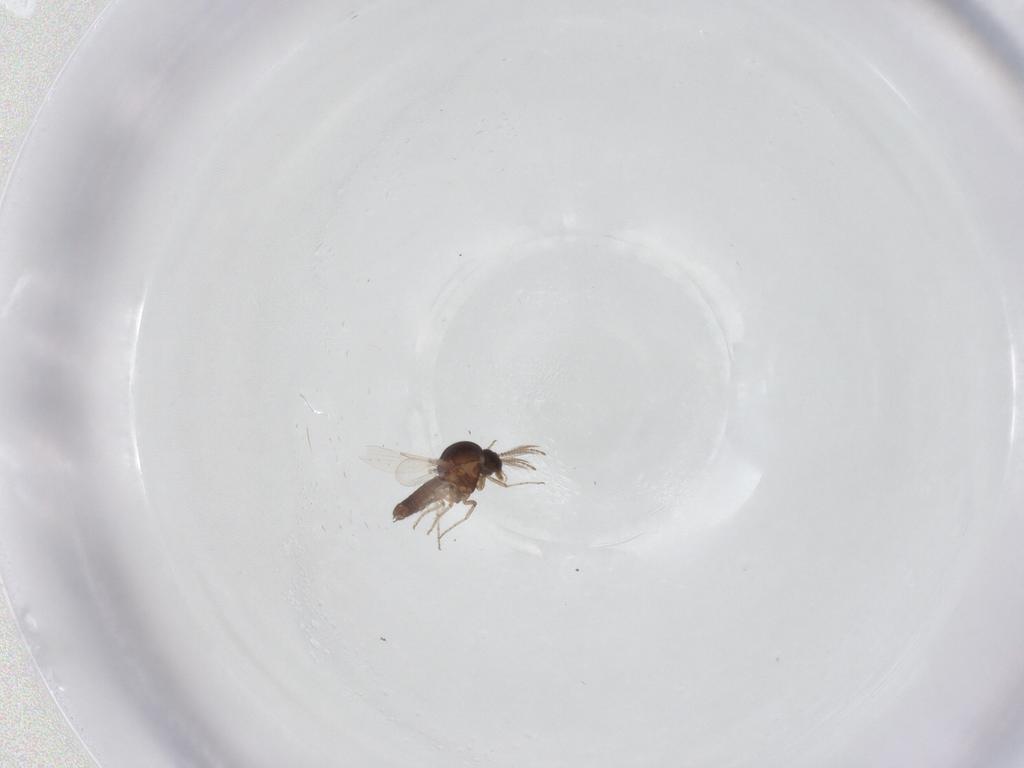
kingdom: Animalia
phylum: Arthropoda
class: Insecta
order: Diptera
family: Ceratopogonidae
